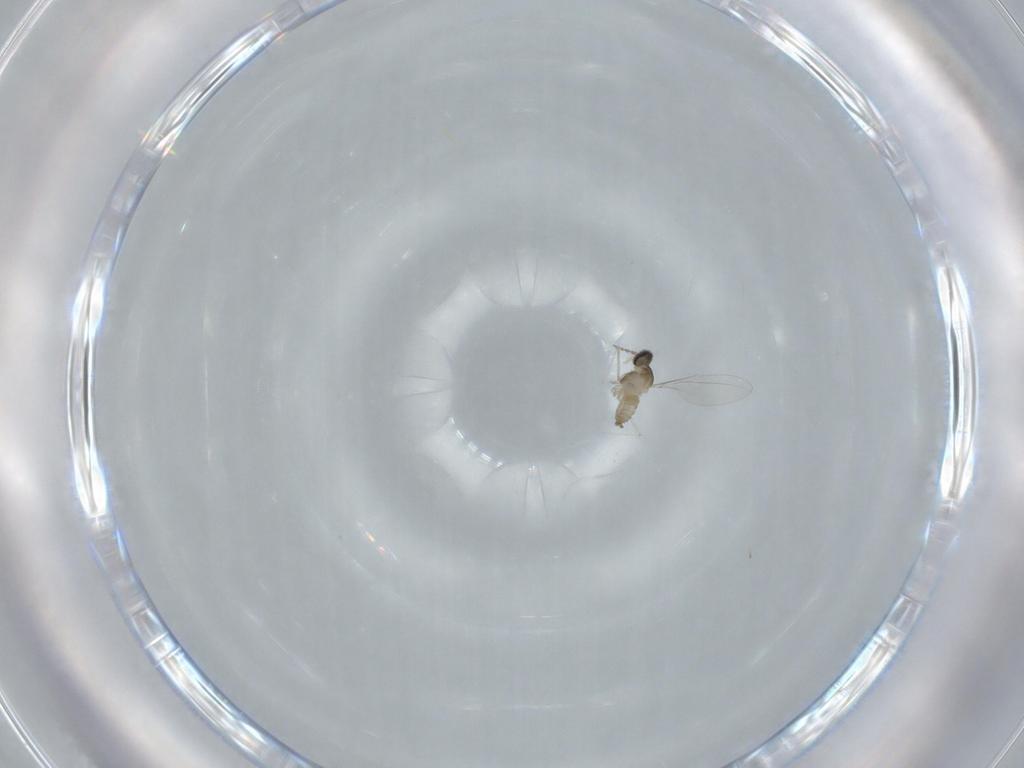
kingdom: Animalia
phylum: Arthropoda
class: Insecta
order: Diptera
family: Cecidomyiidae
